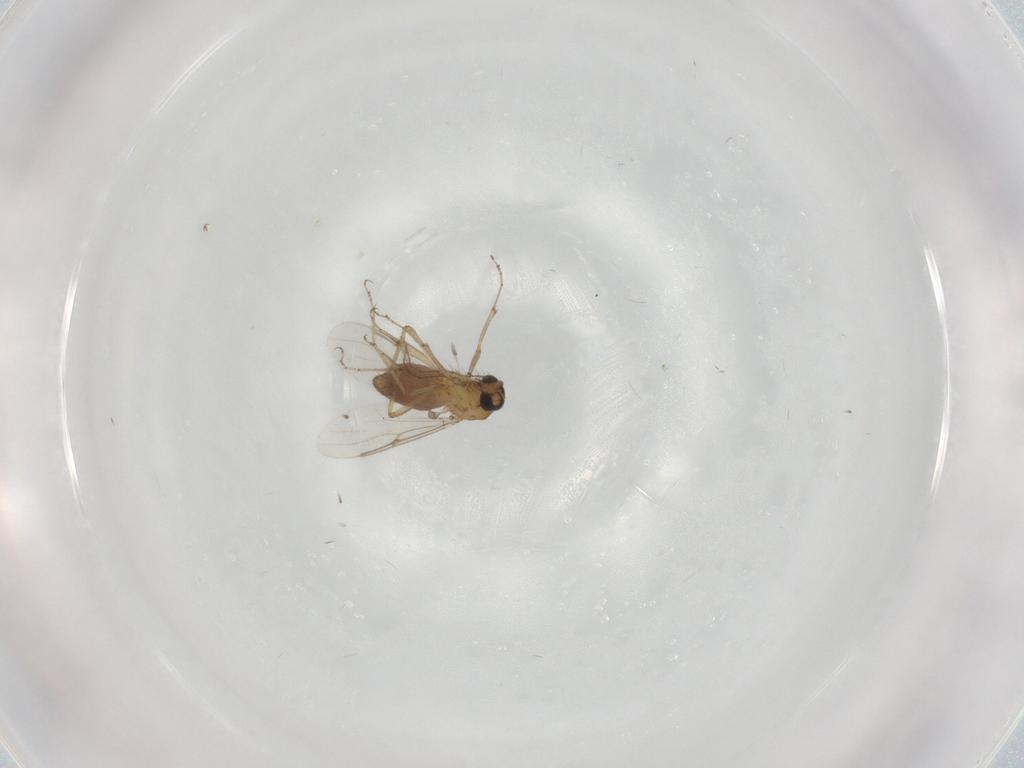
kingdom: Animalia
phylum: Arthropoda
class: Insecta
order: Diptera
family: Ceratopogonidae
